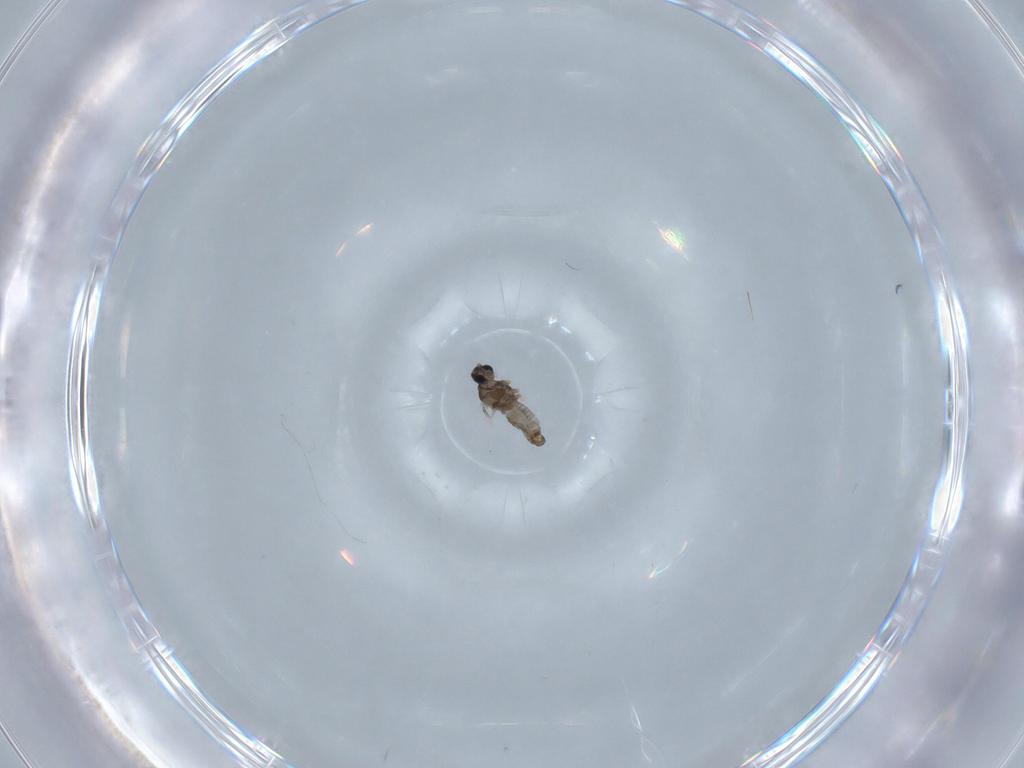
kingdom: Animalia
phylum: Arthropoda
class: Insecta
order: Diptera
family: Cecidomyiidae
